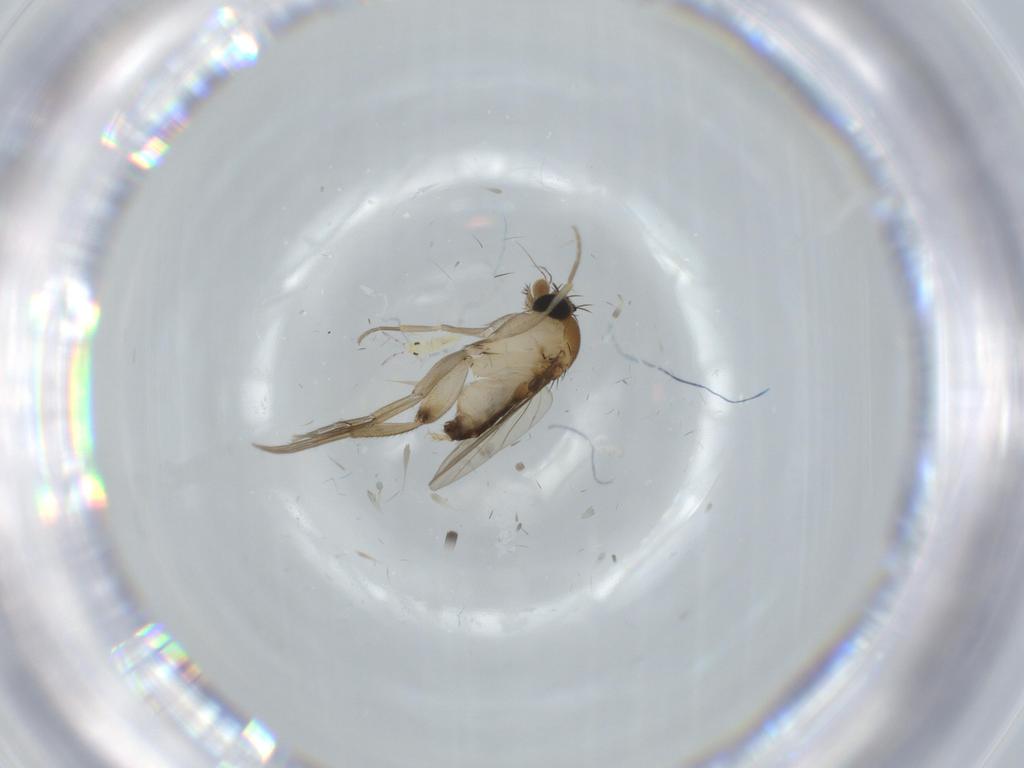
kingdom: Animalia
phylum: Arthropoda
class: Insecta
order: Diptera
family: Phoridae
